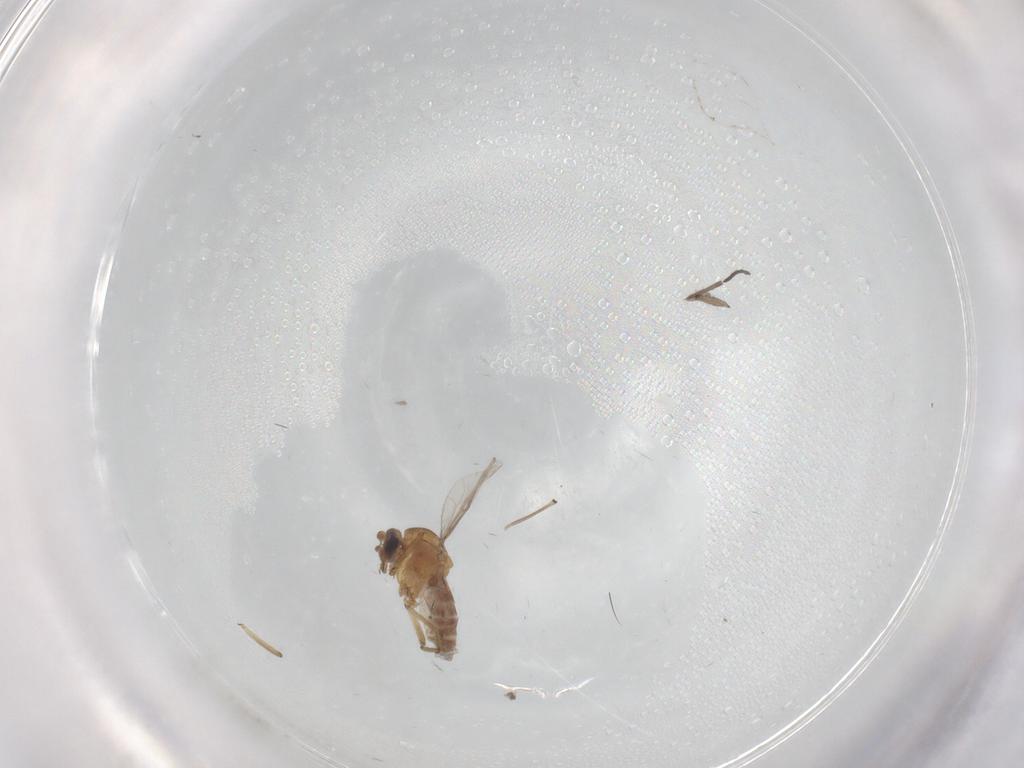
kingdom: Animalia
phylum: Arthropoda
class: Insecta
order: Diptera
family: Sciaridae
